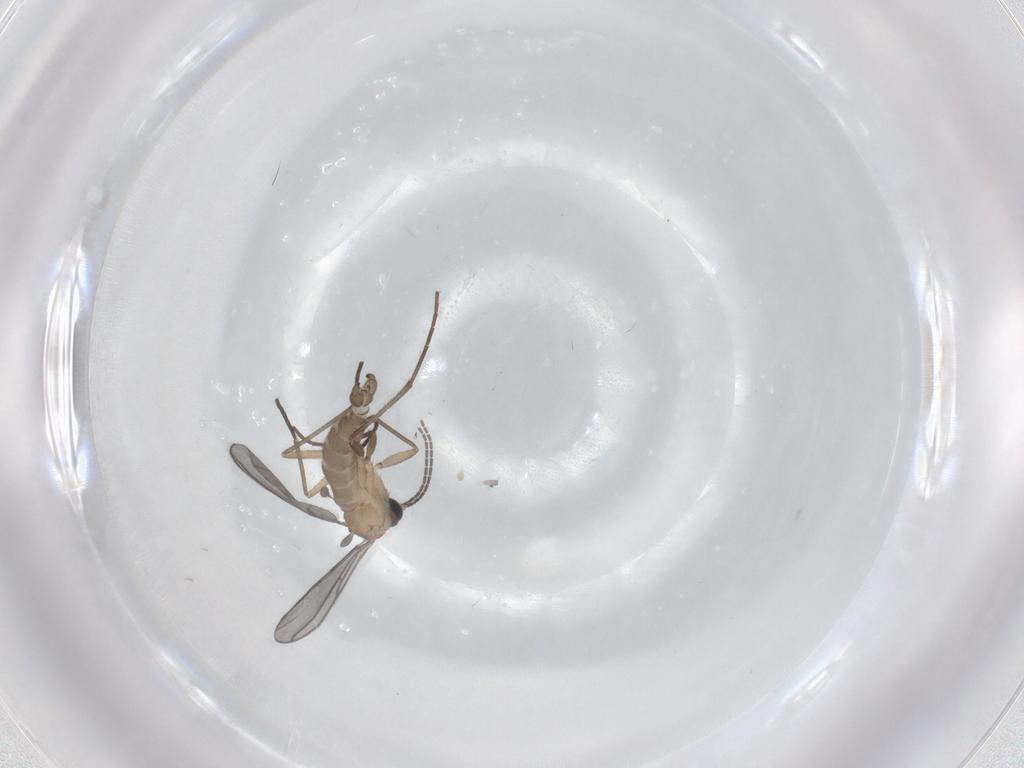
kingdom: Animalia
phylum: Arthropoda
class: Insecta
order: Diptera
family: Sciaridae
